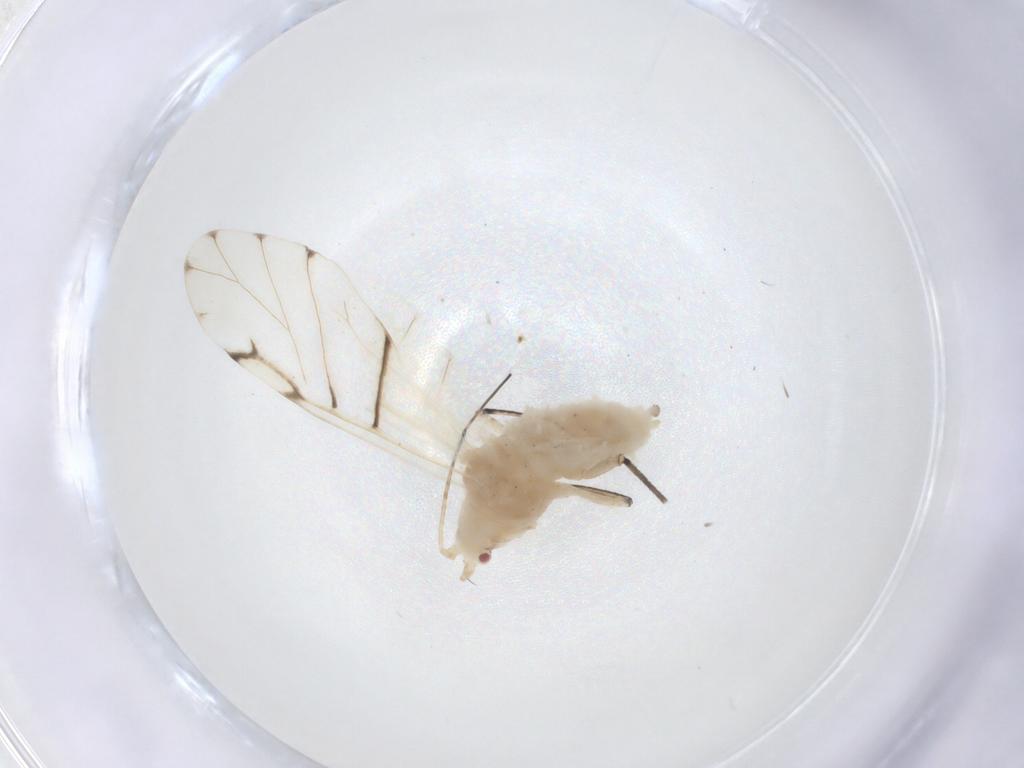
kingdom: Animalia
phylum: Arthropoda
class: Insecta
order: Hemiptera
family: Aphididae
